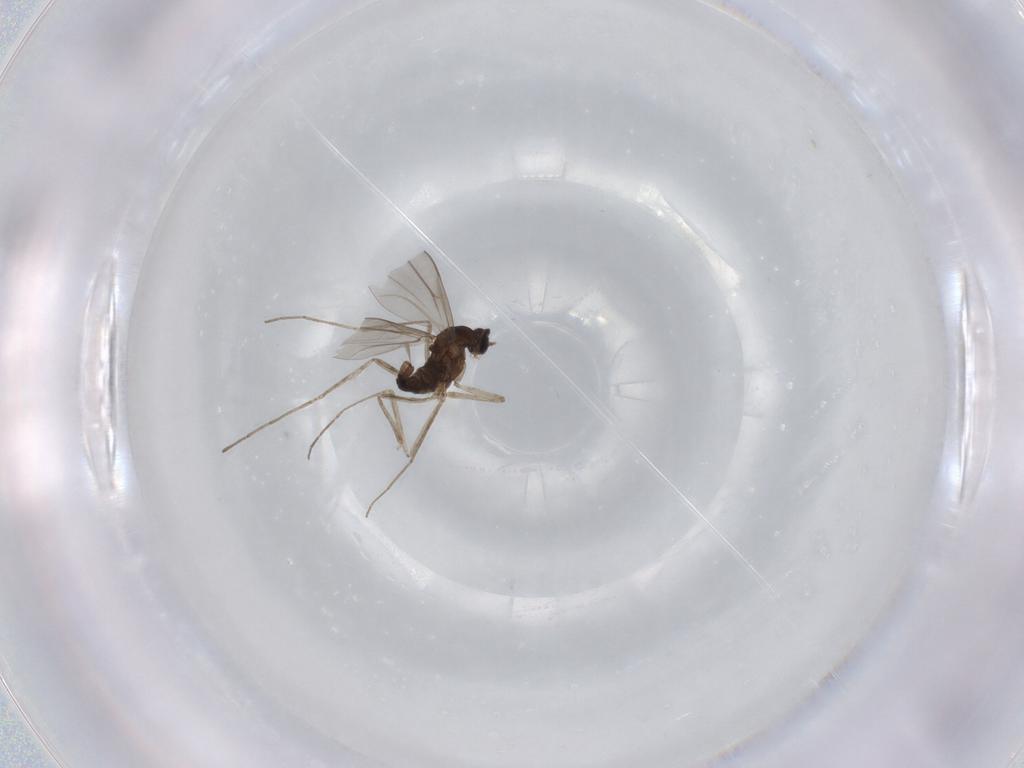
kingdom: Animalia
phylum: Arthropoda
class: Insecta
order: Diptera
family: Cecidomyiidae
